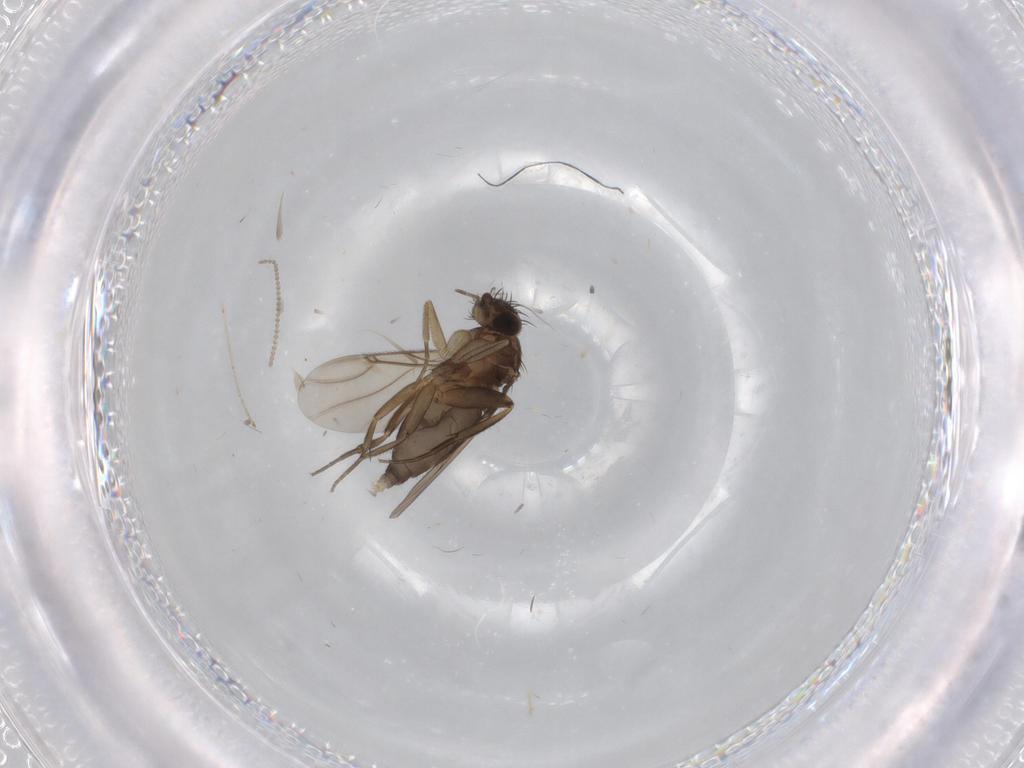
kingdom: Animalia
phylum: Arthropoda
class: Insecta
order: Diptera
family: Phoridae
